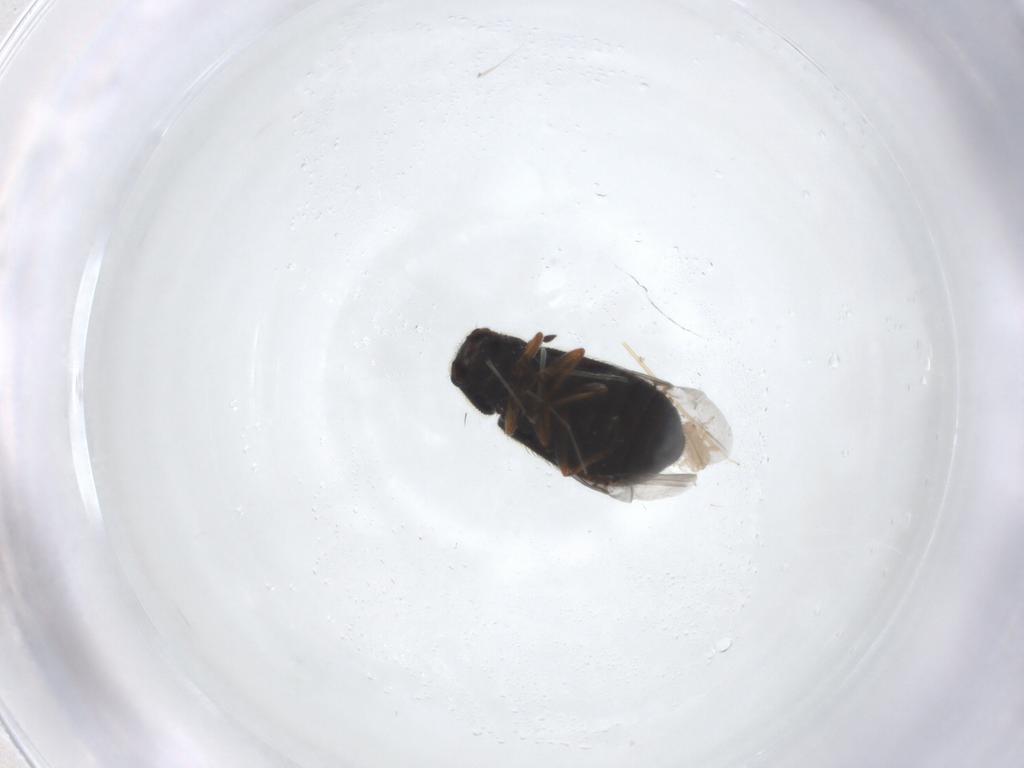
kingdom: Animalia
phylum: Arthropoda
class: Insecta
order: Coleoptera
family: Melyridae
